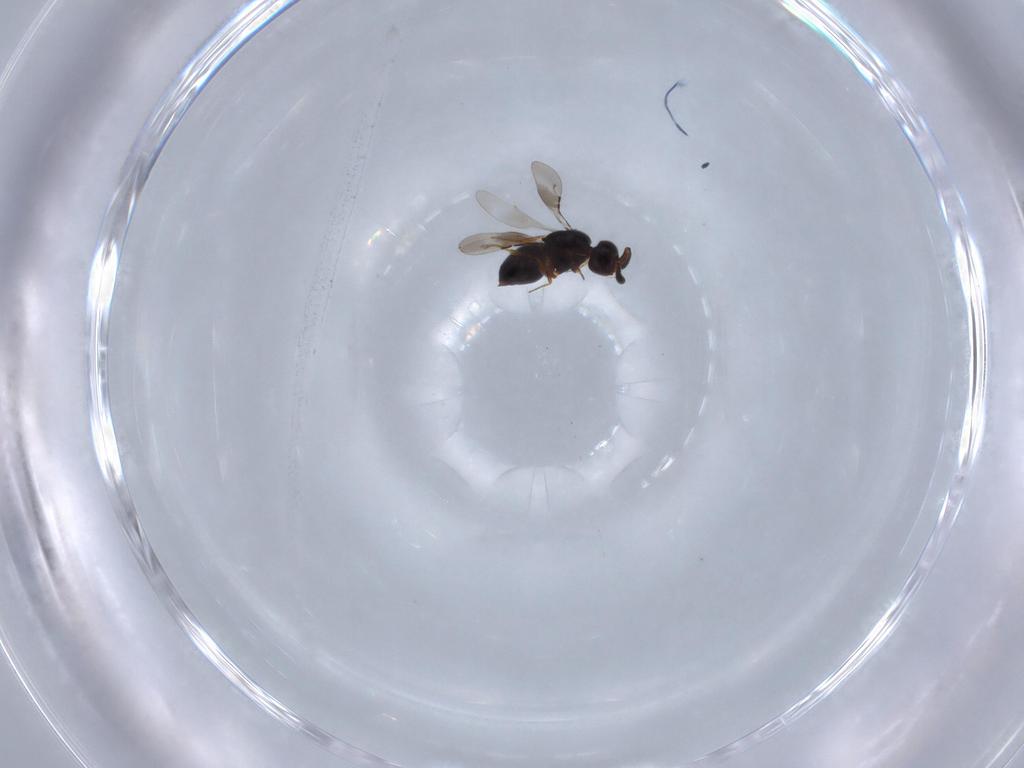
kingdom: Animalia
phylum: Arthropoda
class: Insecta
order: Hymenoptera
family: Ceraphronidae
